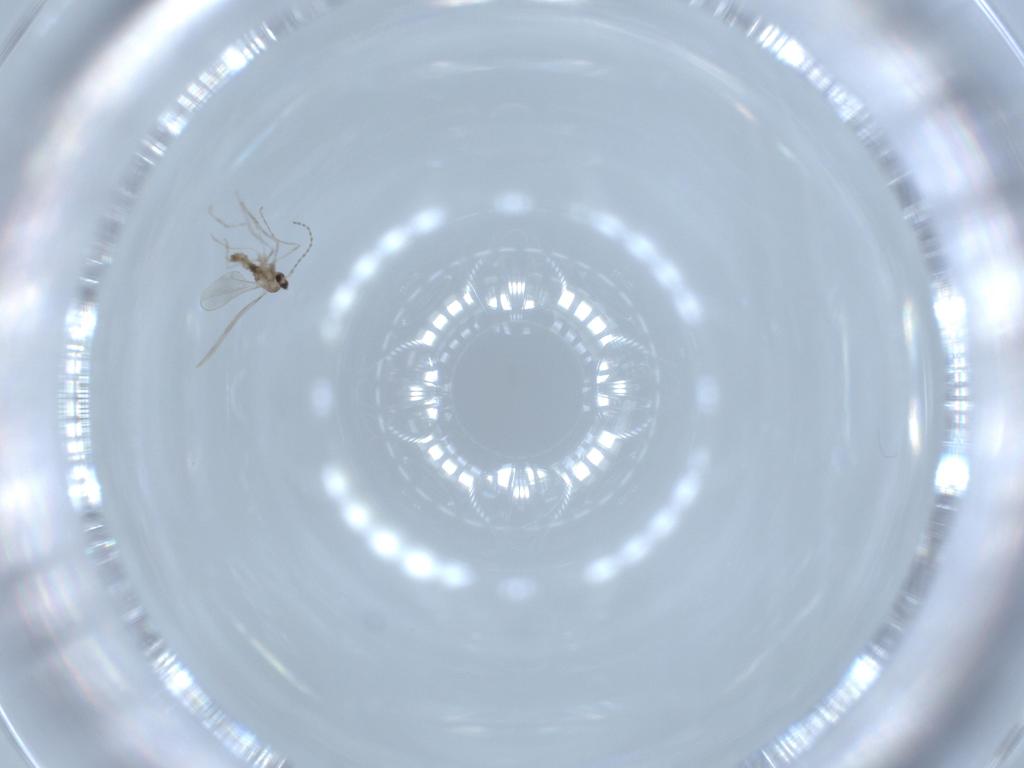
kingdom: Animalia
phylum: Arthropoda
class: Insecta
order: Diptera
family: Cecidomyiidae
